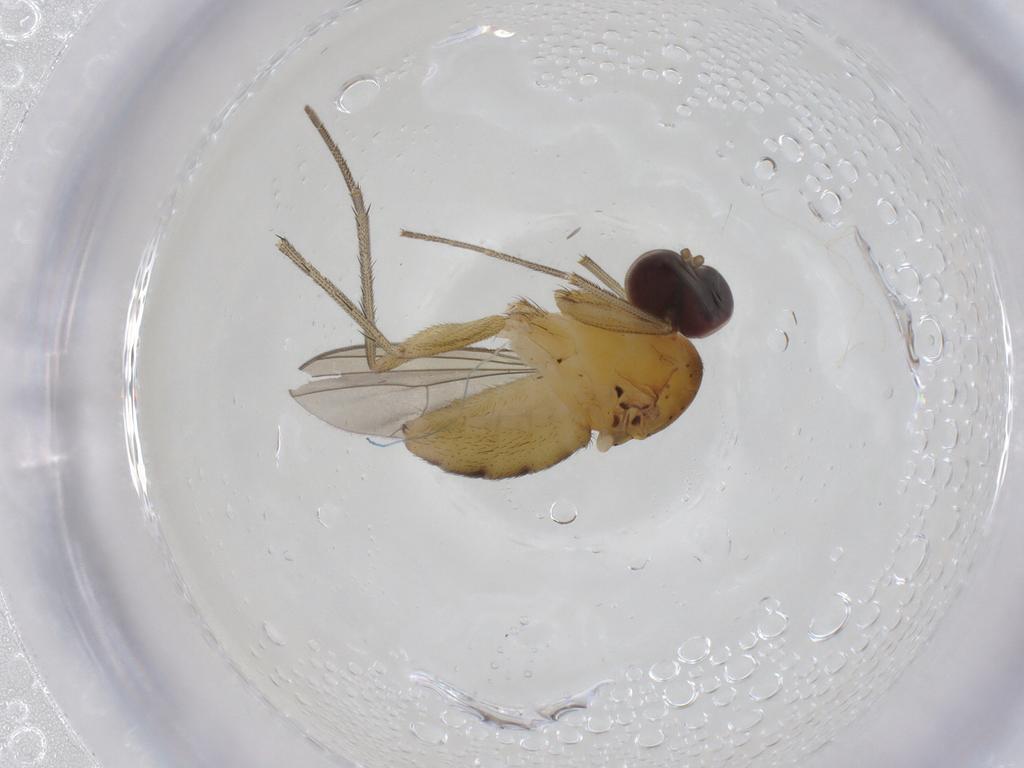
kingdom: Animalia
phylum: Arthropoda
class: Insecta
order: Diptera
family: Dolichopodidae
